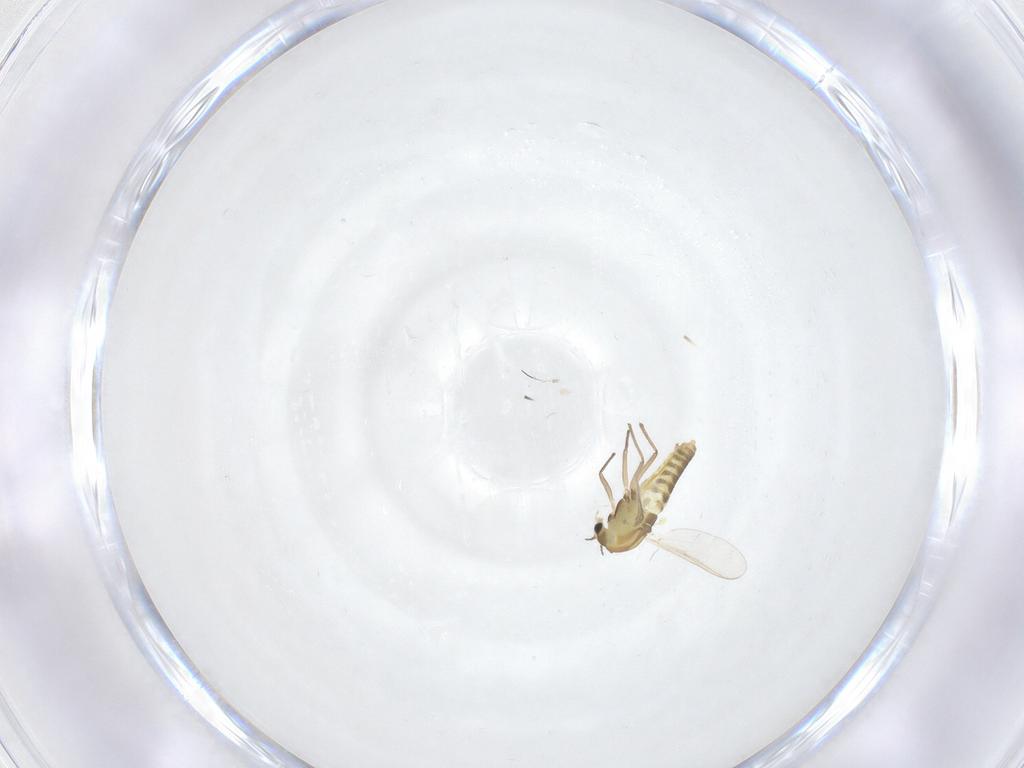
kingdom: Animalia
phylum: Arthropoda
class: Insecta
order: Diptera
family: Chironomidae
